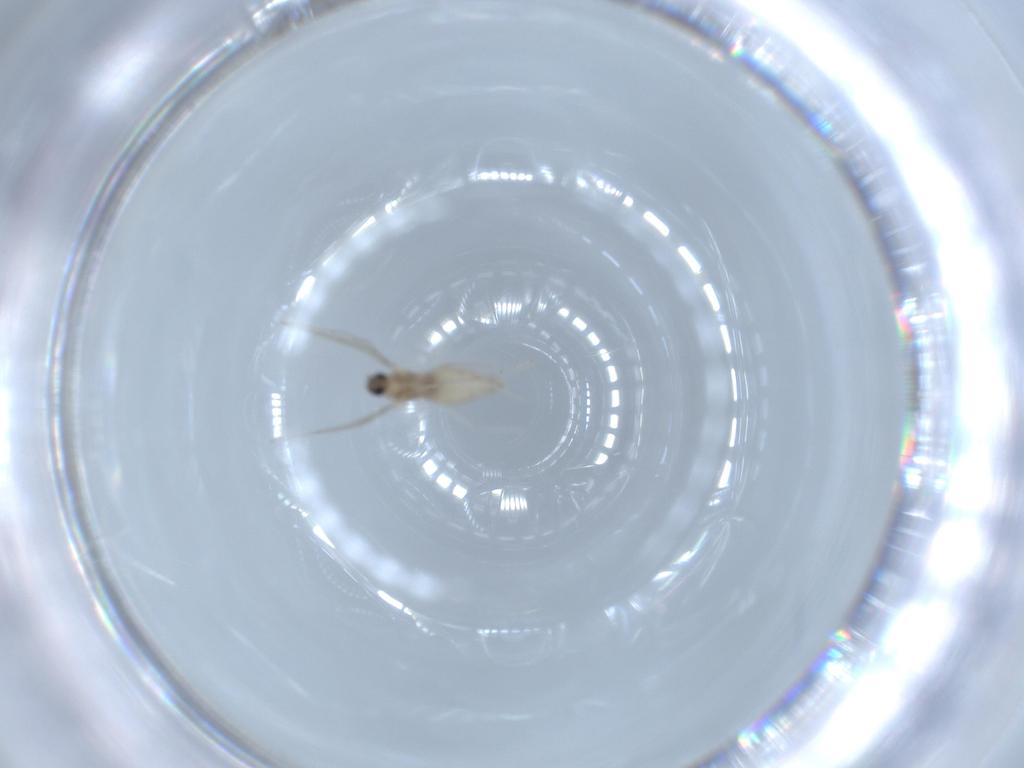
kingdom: Animalia
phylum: Arthropoda
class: Insecta
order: Diptera
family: Cecidomyiidae
